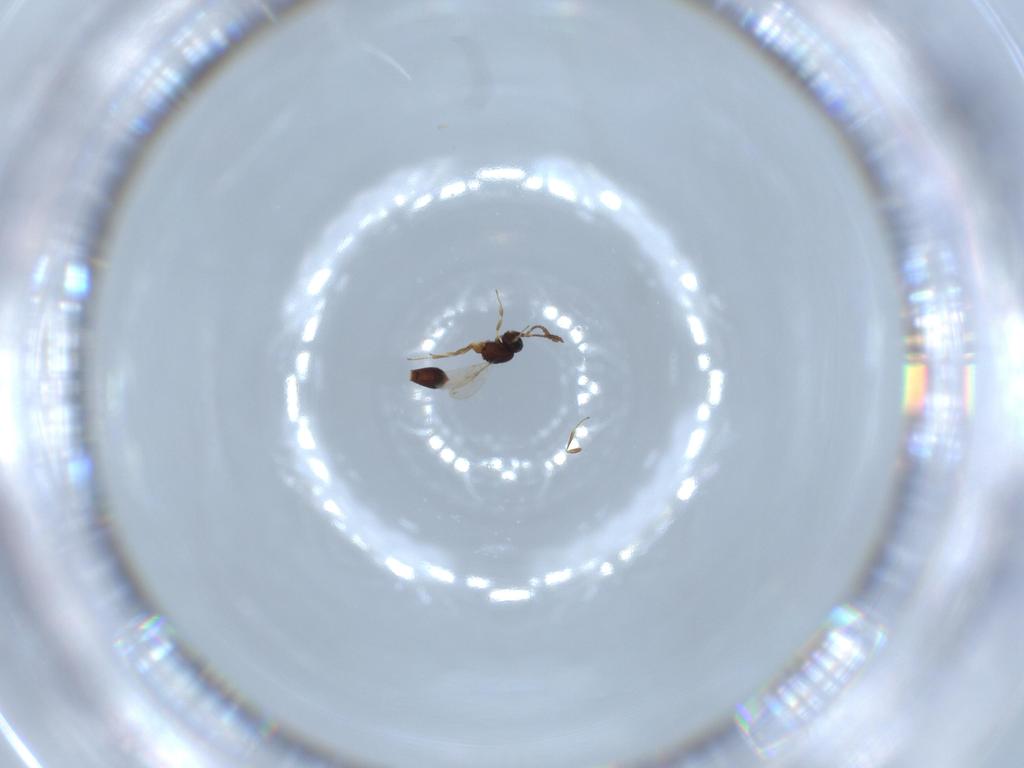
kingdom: Animalia
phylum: Arthropoda
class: Insecta
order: Hymenoptera
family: Scelionidae
